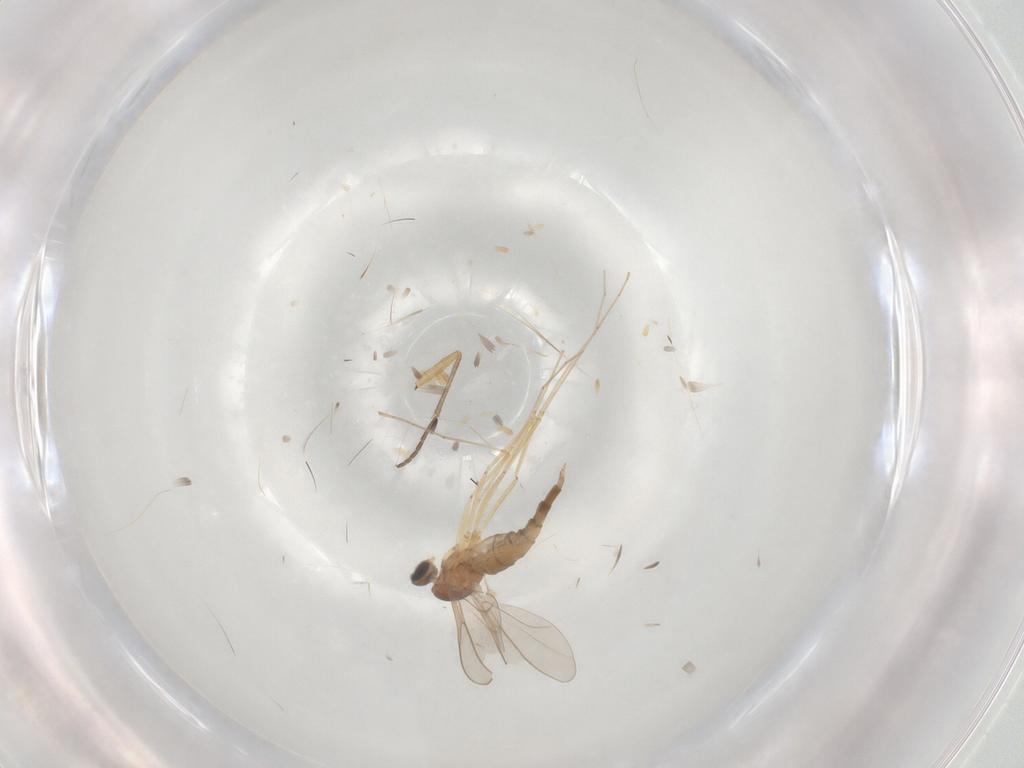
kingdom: Animalia
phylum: Arthropoda
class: Insecta
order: Diptera
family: Cecidomyiidae
